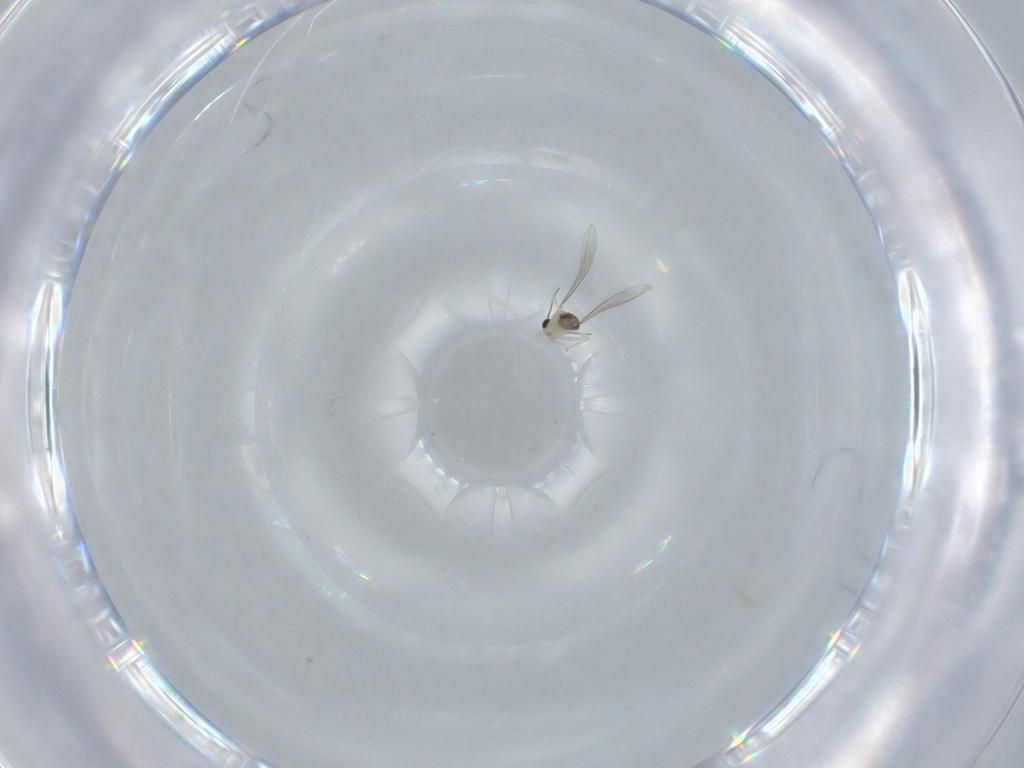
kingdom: Animalia
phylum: Arthropoda
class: Insecta
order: Diptera
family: Cecidomyiidae
